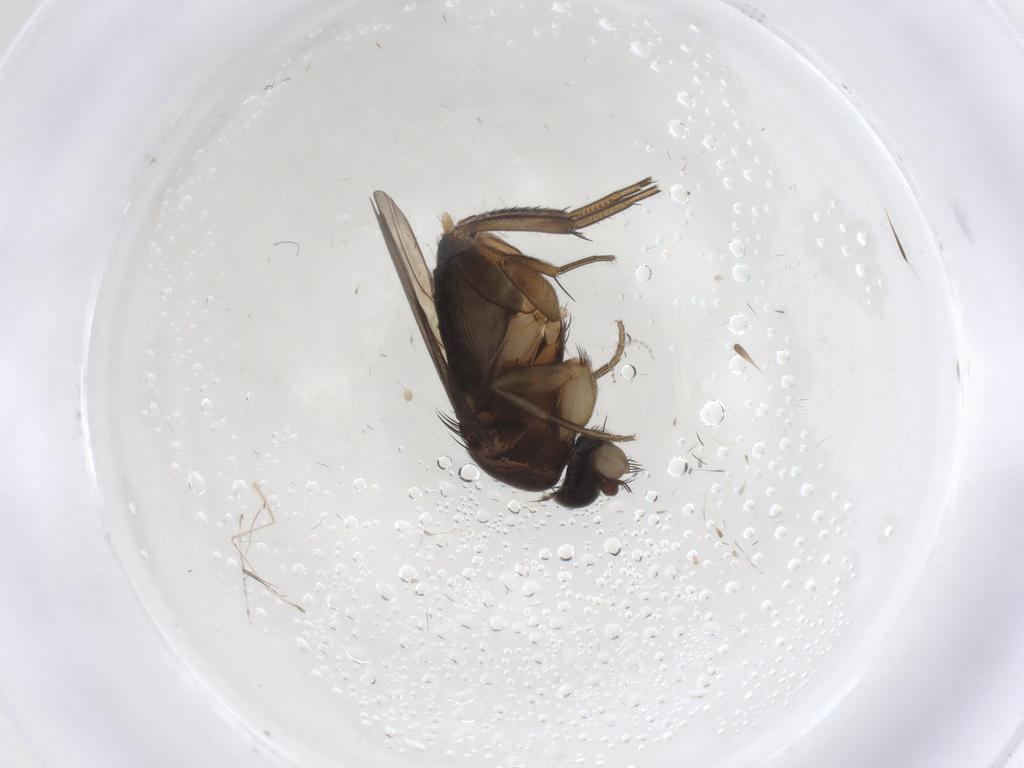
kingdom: Animalia
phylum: Arthropoda
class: Insecta
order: Diptera
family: Phoridae
